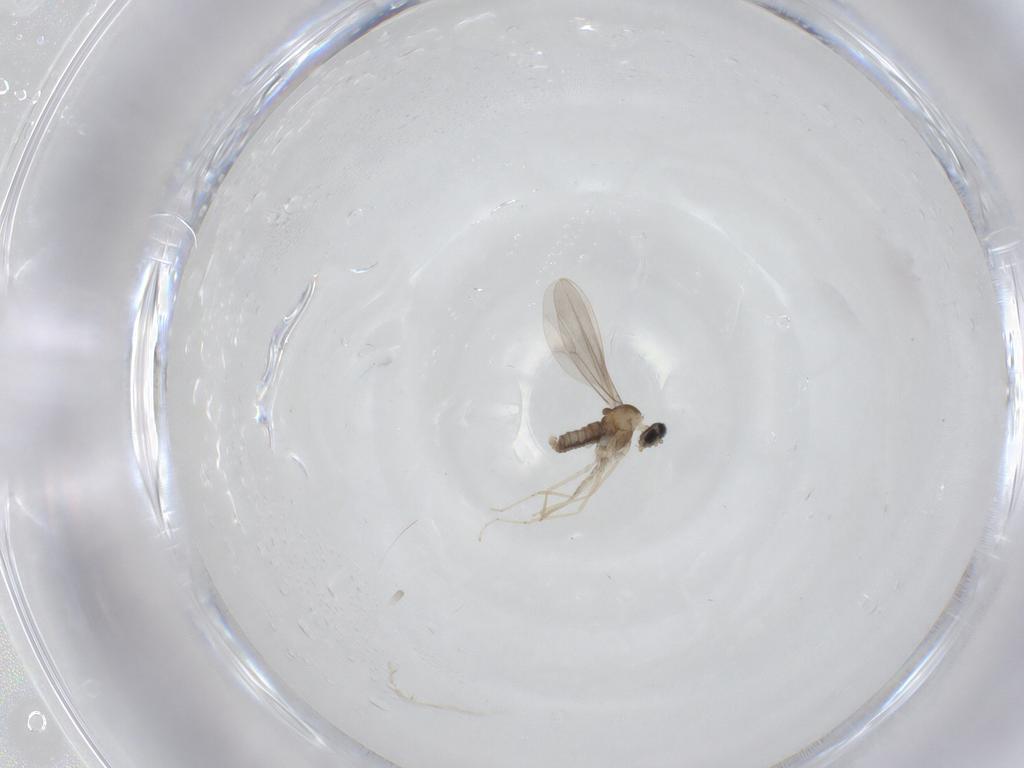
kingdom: Animalia
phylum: Arthropoda
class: Insecta
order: Diptera
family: Cecidomyiidae
